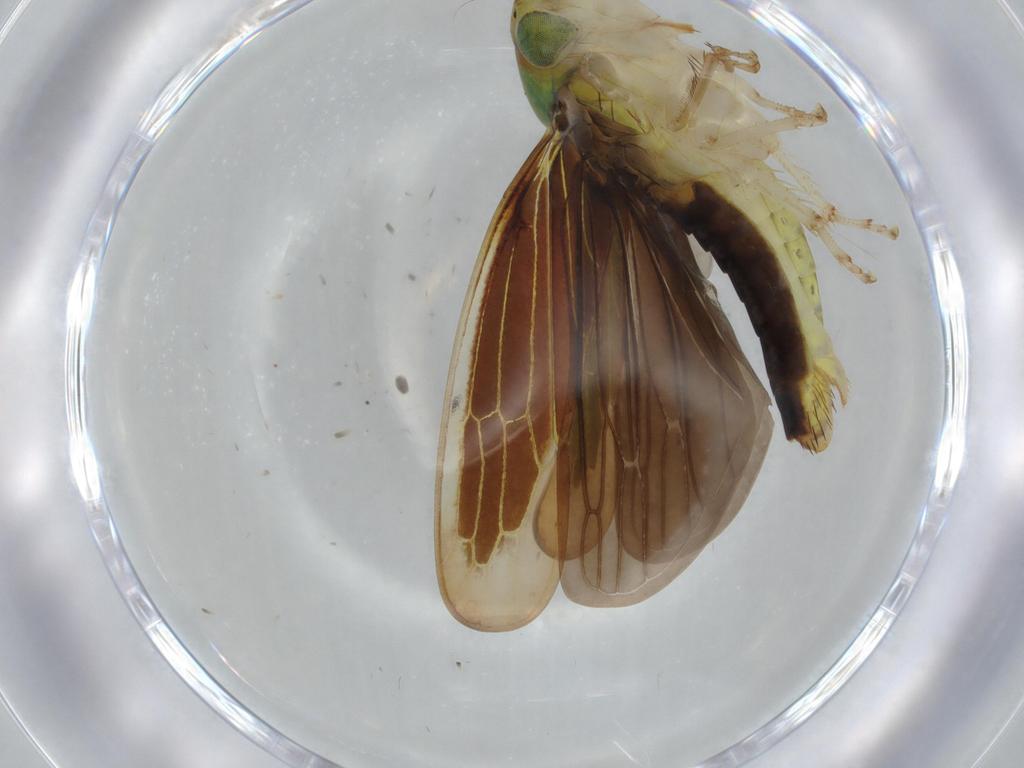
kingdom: Animalia
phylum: Arthropoda
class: Insecta
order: Hemiptera
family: Cicadellidae
